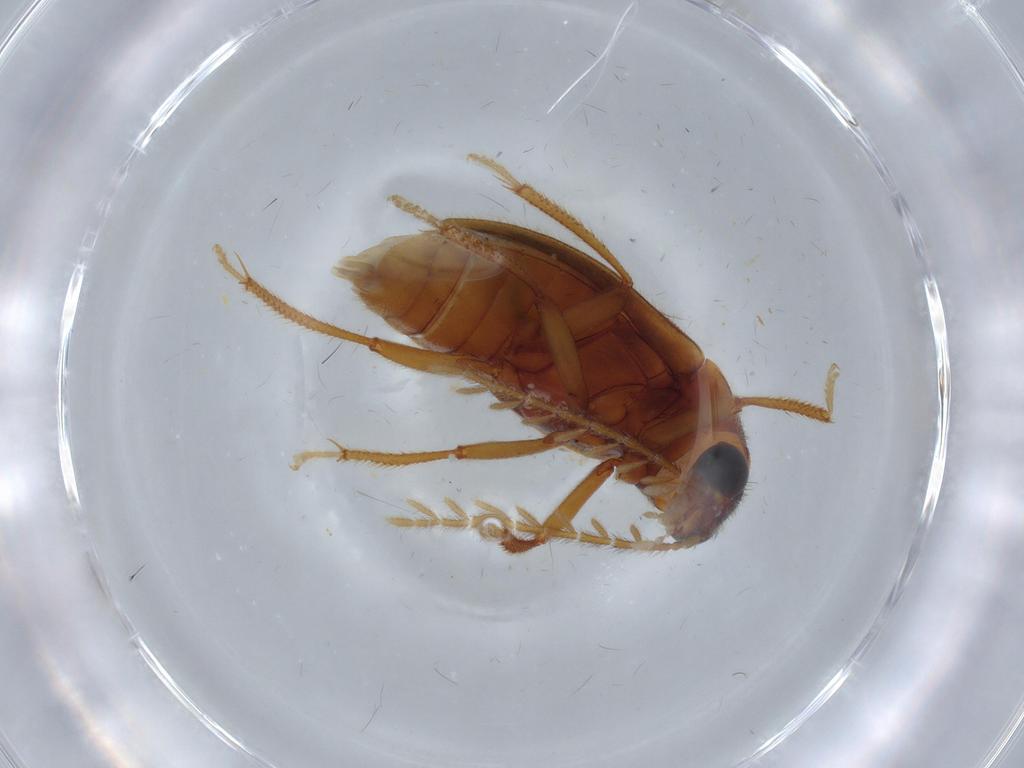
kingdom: Animalia
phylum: Arthropoda
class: Insecta
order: Coleoptera
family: Ptilodactylidae
